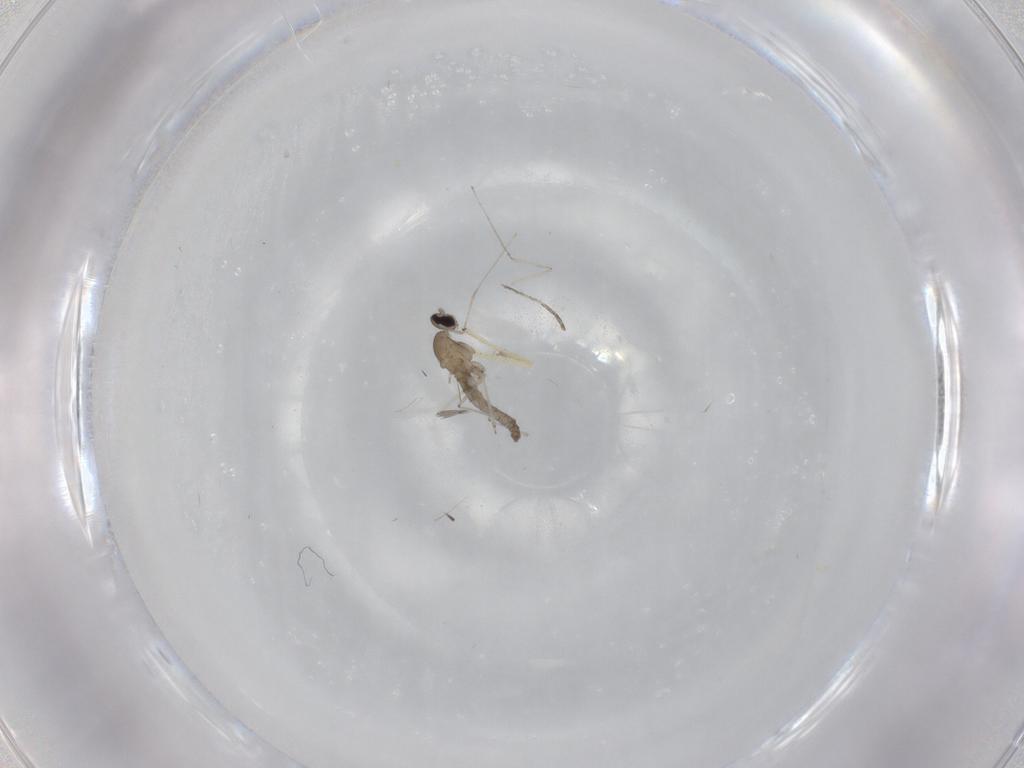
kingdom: Animalia
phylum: Arthropoda
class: Insecta
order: Diptera
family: Cecidomyiidae
